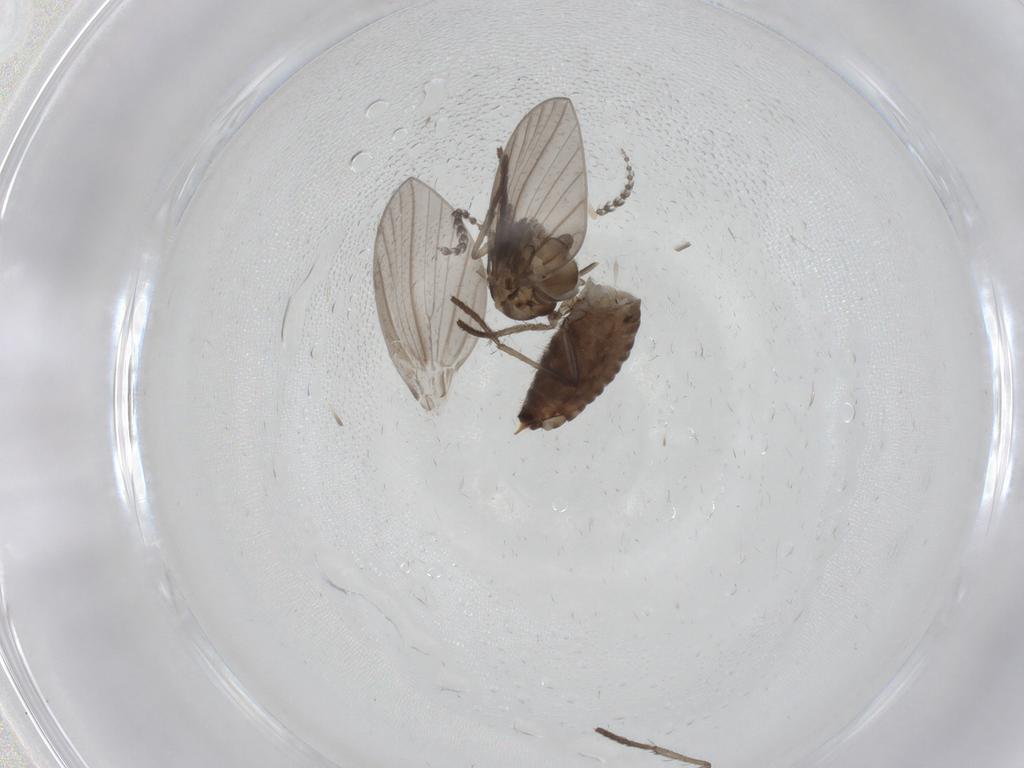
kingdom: Animalia
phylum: Arthropoda
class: Insecta
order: Diptera
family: Psychodidae
